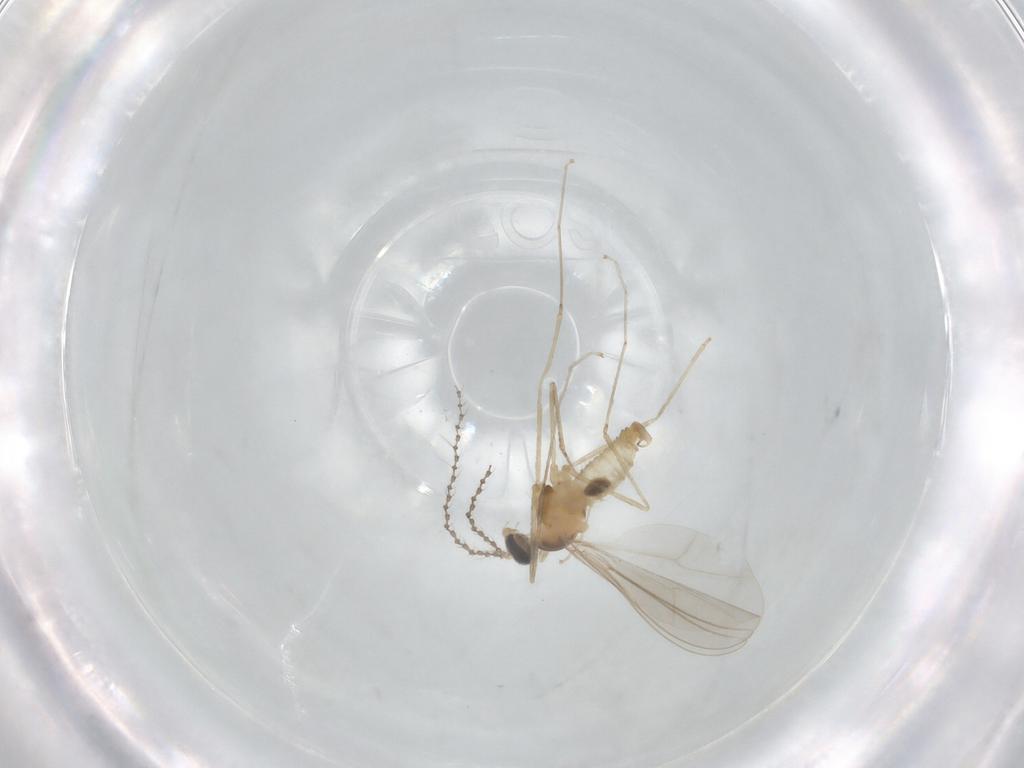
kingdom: Animalia
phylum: Arthropoda
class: Insecta
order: Diptera
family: Cecidomyiidae
